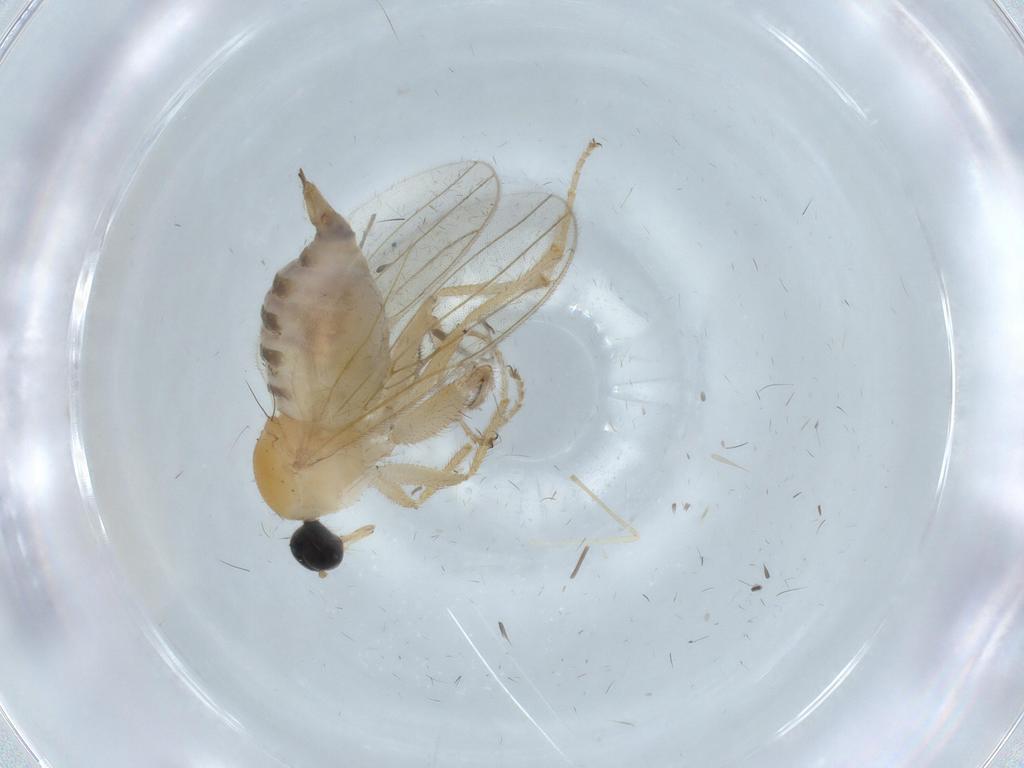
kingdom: Animalia
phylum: Arthropoda
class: Insecta
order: Diptera
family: Hybotidae
